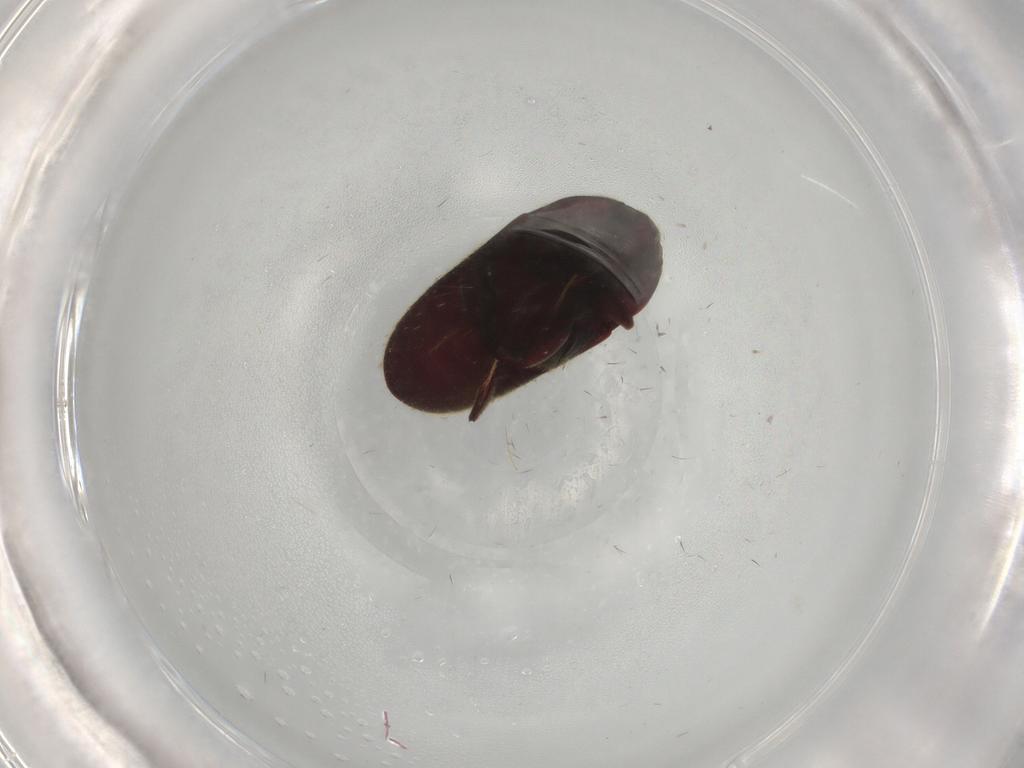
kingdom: Animalia
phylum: Arthropoda
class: Insecta
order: Coleoptera
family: Throscidae
